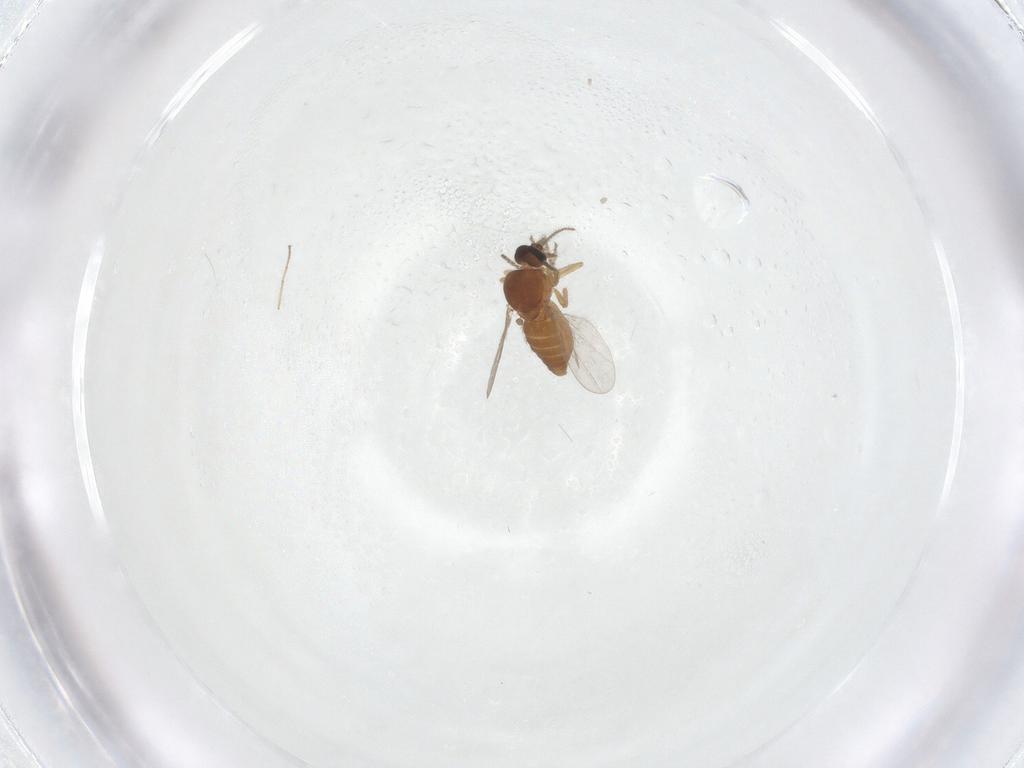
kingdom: Animalia
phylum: Arthropoda
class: Insecta
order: Diptera
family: Ceratopogonidae
